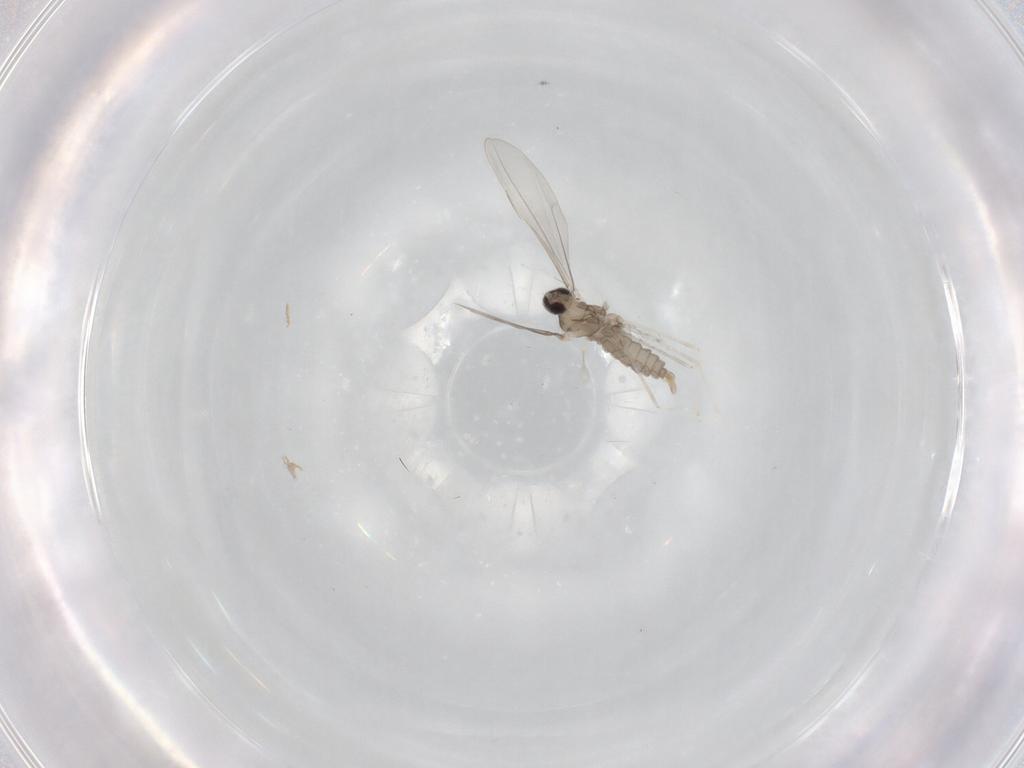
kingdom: Animalia
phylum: Arthropoda
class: Insecta
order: Diptera
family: Cecidomyiidae
